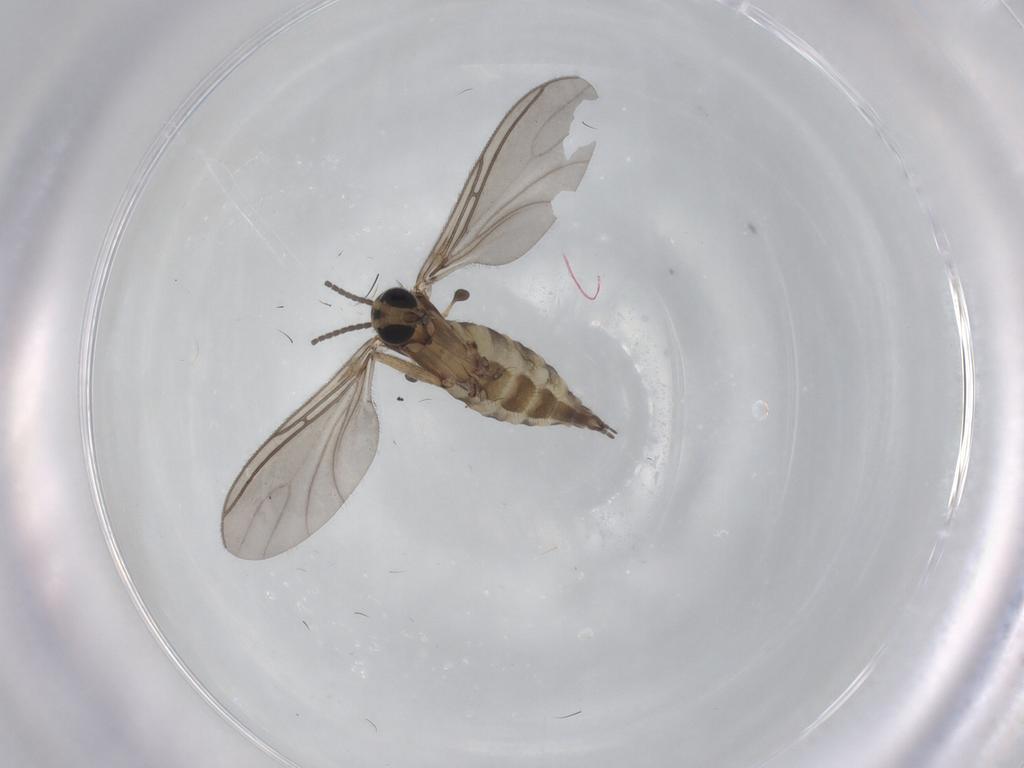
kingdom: Animalia
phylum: Arthropoda
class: Insecta
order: Diptera
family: Sciaridae
